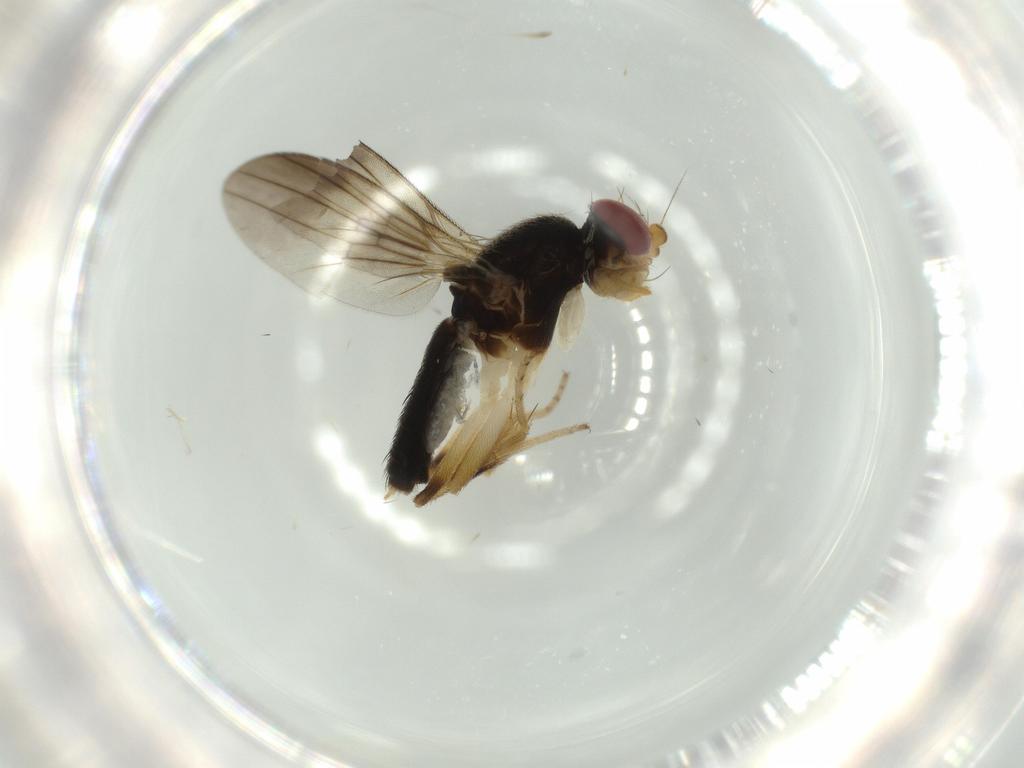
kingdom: Animalia
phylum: Arthropoda
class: Insecta
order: Diptera
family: Clusiidae
